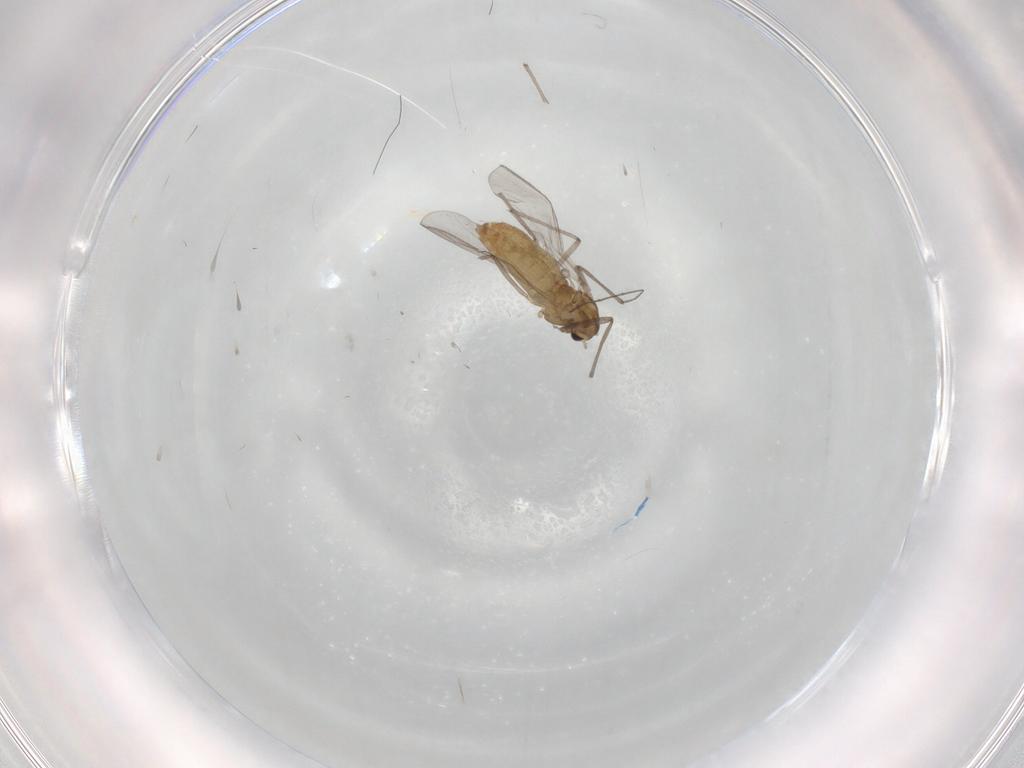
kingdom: Animalia
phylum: Arthropoda
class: Insecta
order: Diptera
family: Chironomidae
